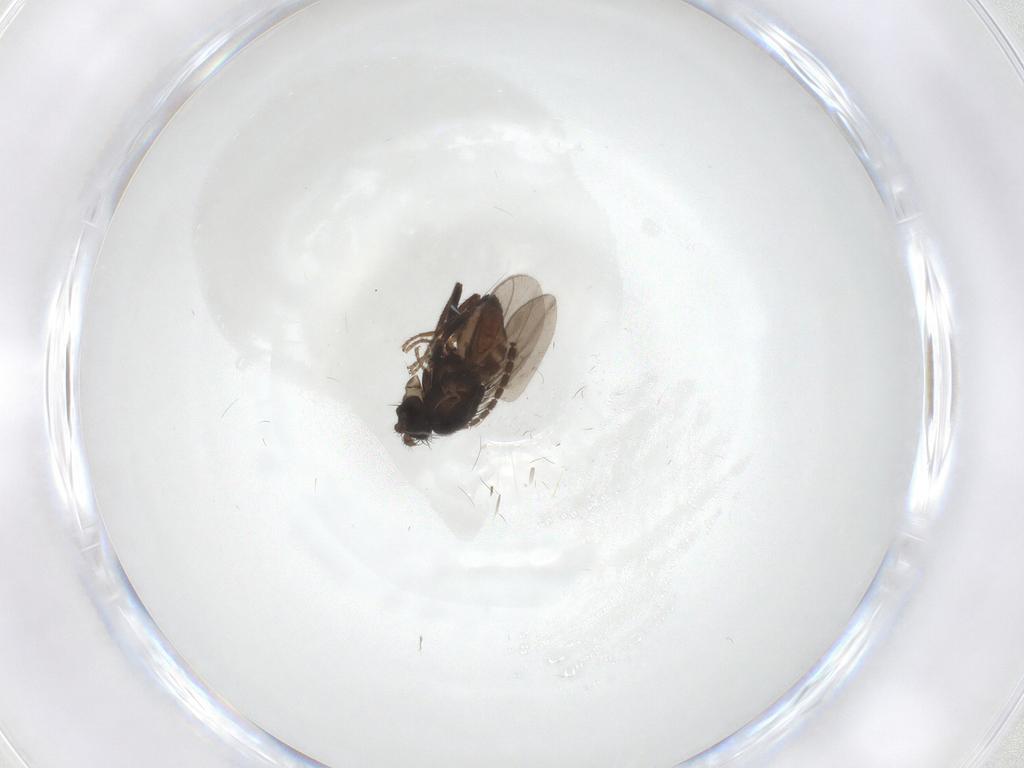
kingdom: Animalia
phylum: Arthropoda
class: Insecta
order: Diptera
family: Sphaeroceridae
